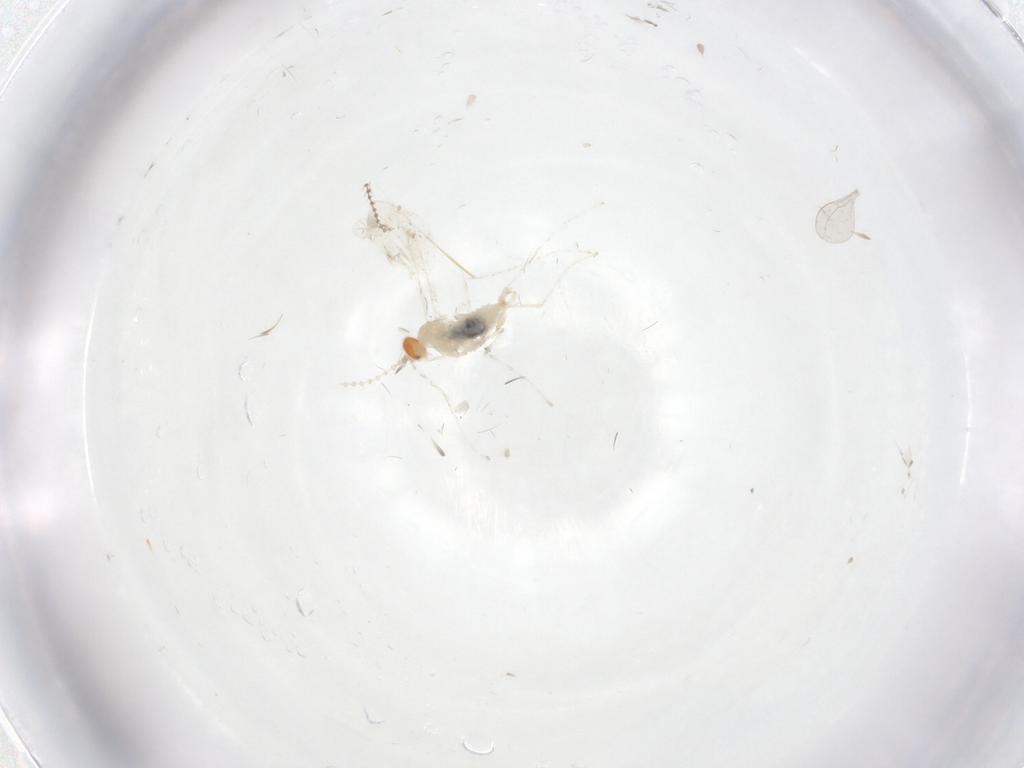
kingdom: Animalia
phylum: Arthropoda
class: Insecta
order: Diptera
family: Cecidomyiidae
